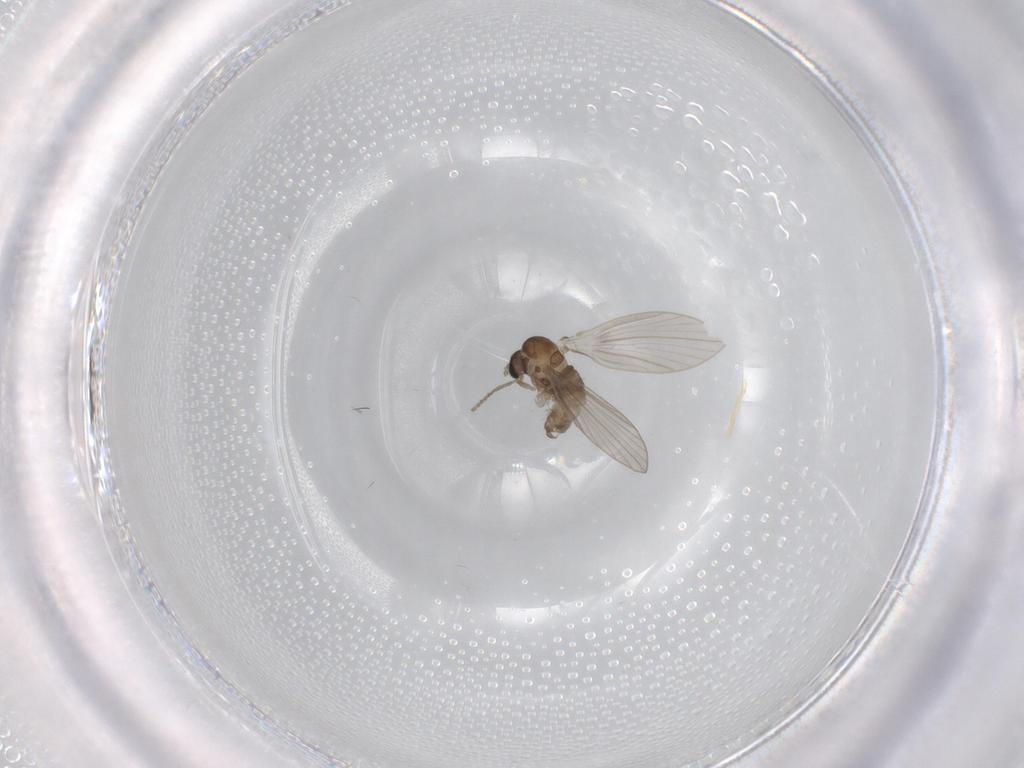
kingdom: Animalia
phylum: Arthropoda
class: Insecta
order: Diptera
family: Psychodidae
